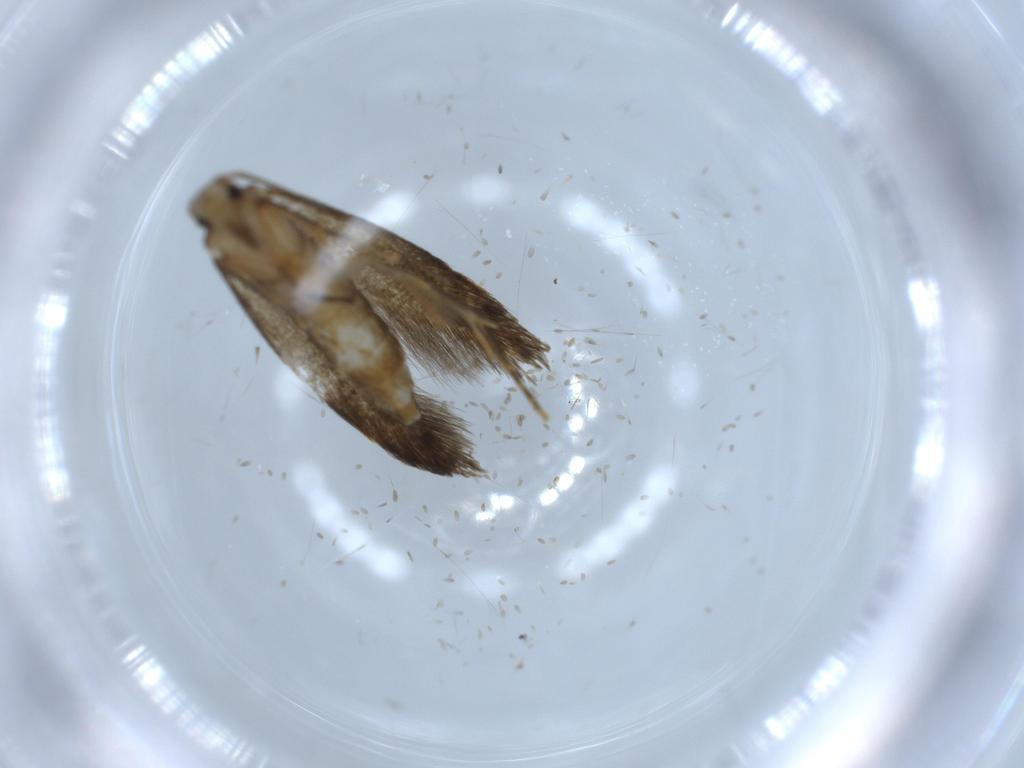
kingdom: Animalia
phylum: Arthropoda
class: Insecta
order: Lepidoptera
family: Tineidae
